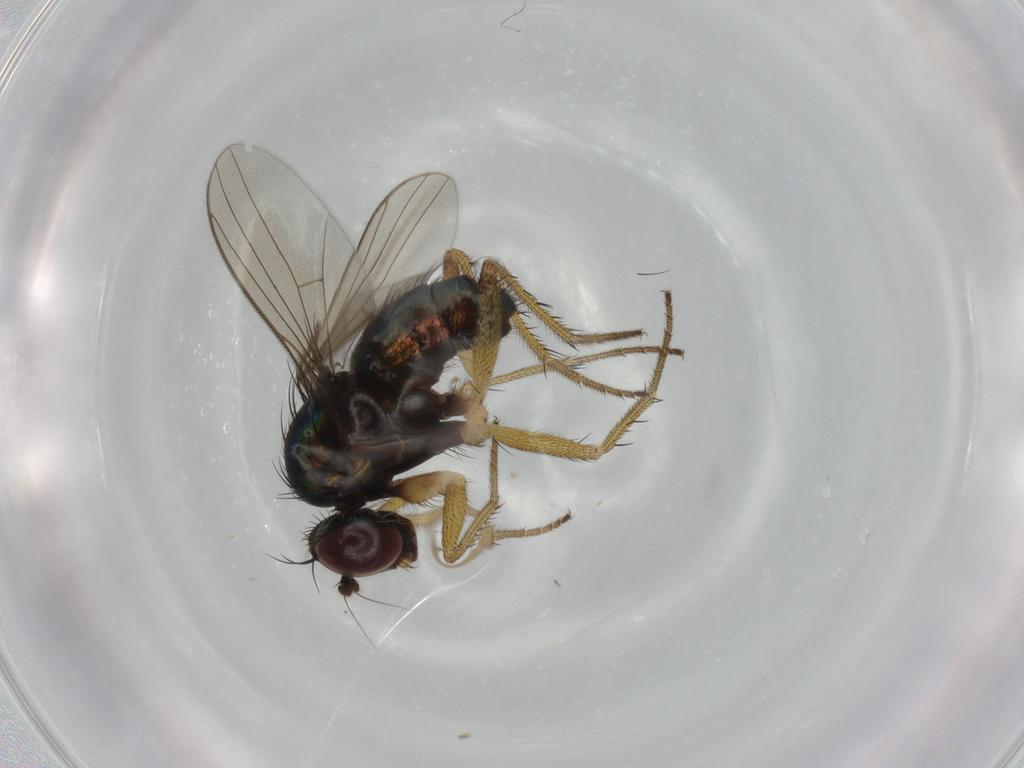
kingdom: Animalia
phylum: Arthropoda
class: Insecta
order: Diptera
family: Dolichopodidae
